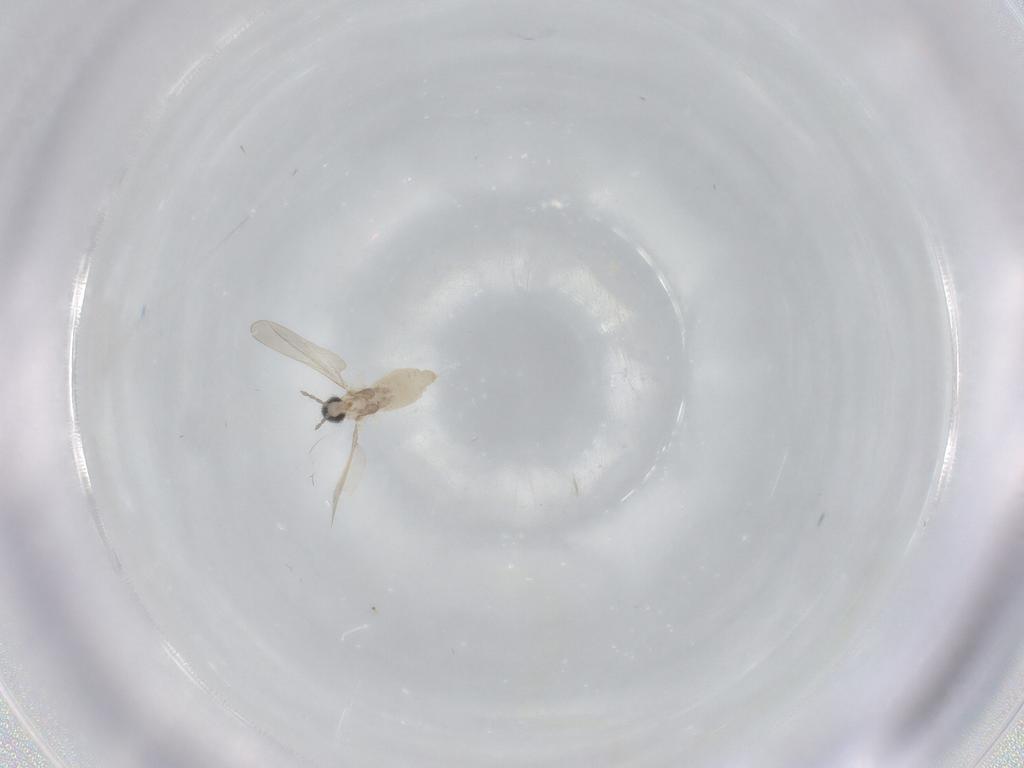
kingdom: Animalia
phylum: Arthropoda
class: Insecta
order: Diptera
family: Cecidomyiidae
